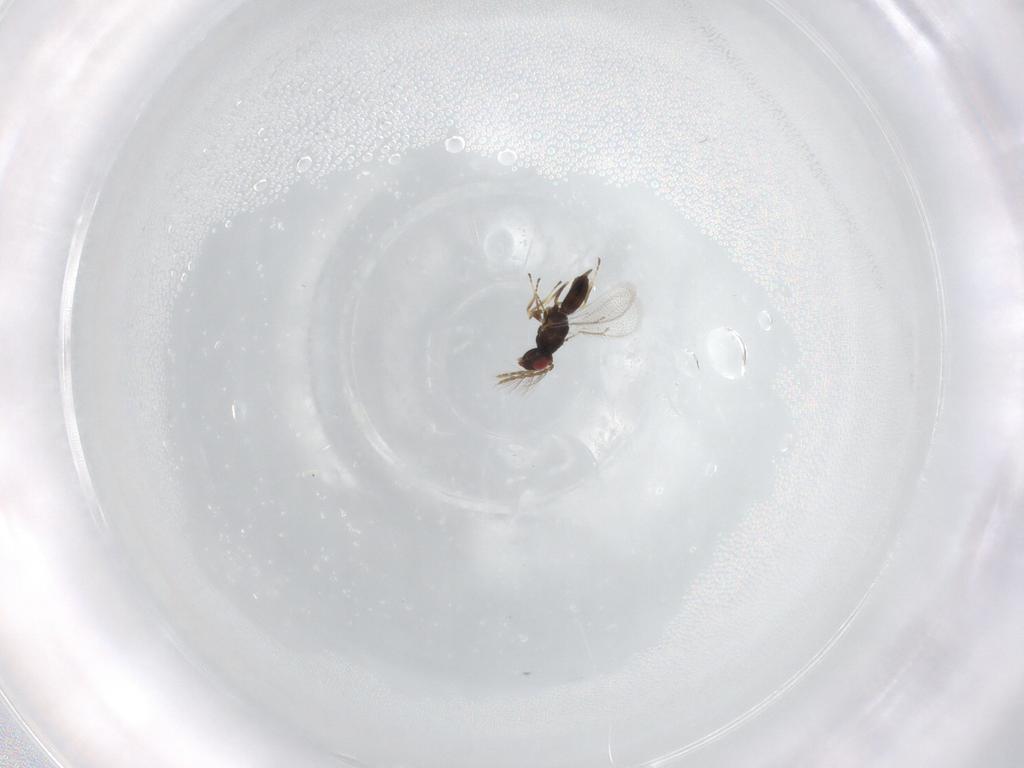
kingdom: Animalia
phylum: Arthropoda
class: Insecta
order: Hymenoptera
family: Eulophidae
